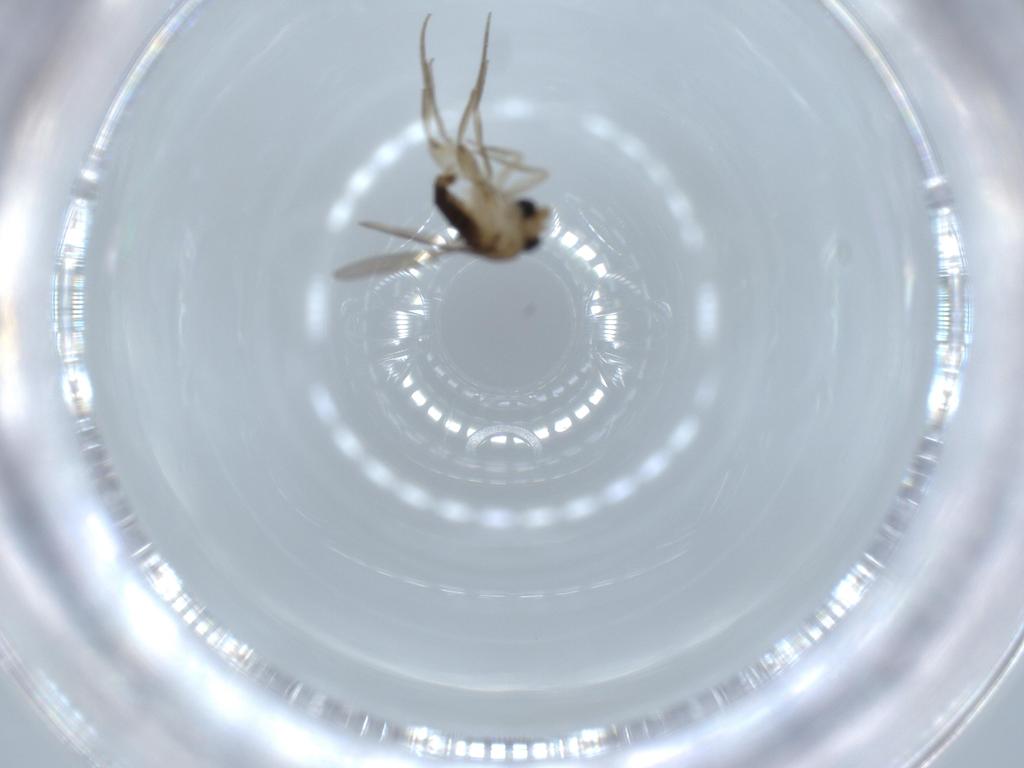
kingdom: Animalia
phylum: Arthropoda
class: Insecta
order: Diptera
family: Phoridae
